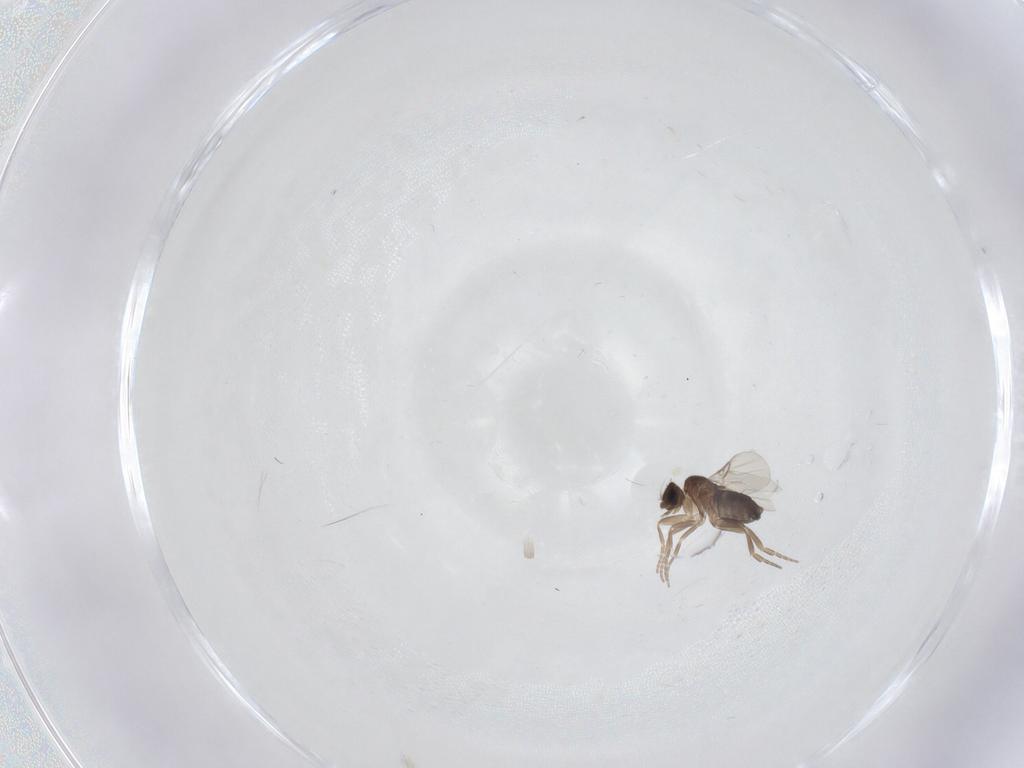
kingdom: Animalia
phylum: Arthropoda
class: Insecta
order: Diptera
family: Phoridae
